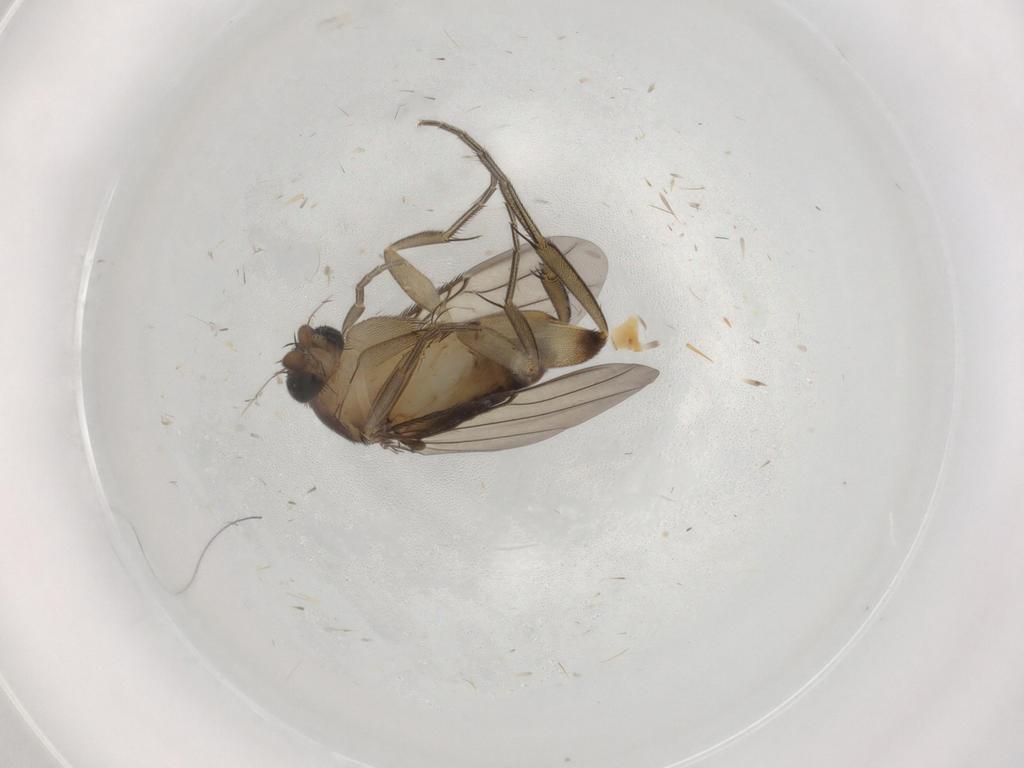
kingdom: Animalia
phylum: Arthropoda
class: Insecta
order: Diptera
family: Phoridae
